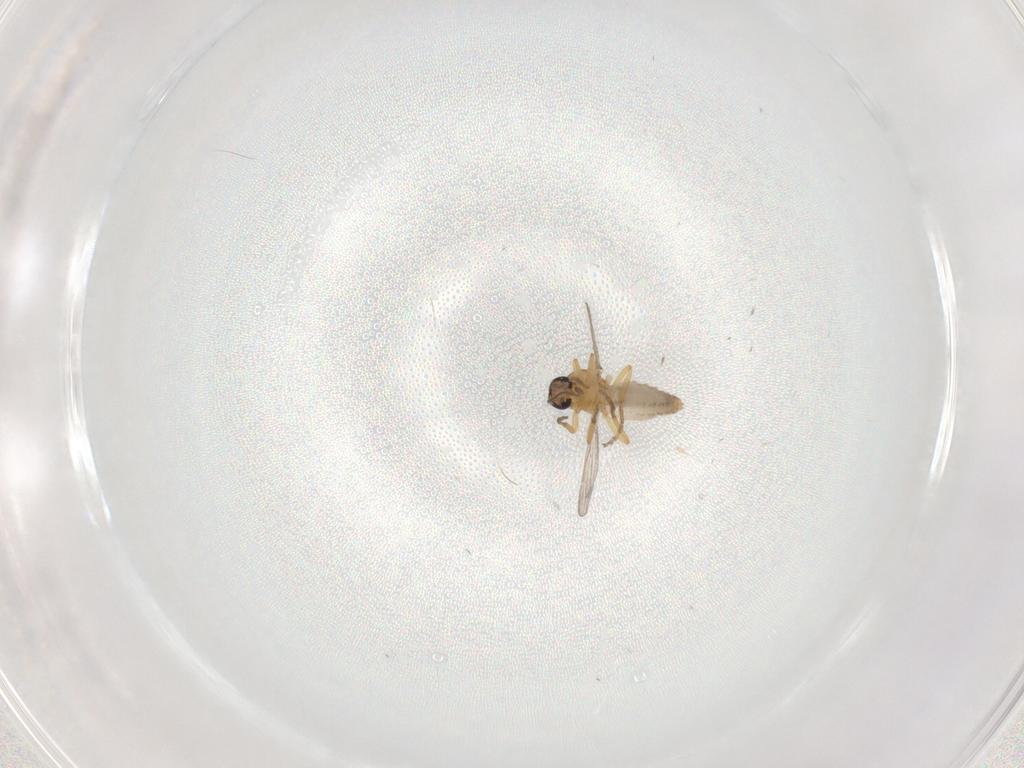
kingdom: Animalia
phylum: Arthropoda
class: Insecta
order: Diptera
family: Ceratopogonidae
